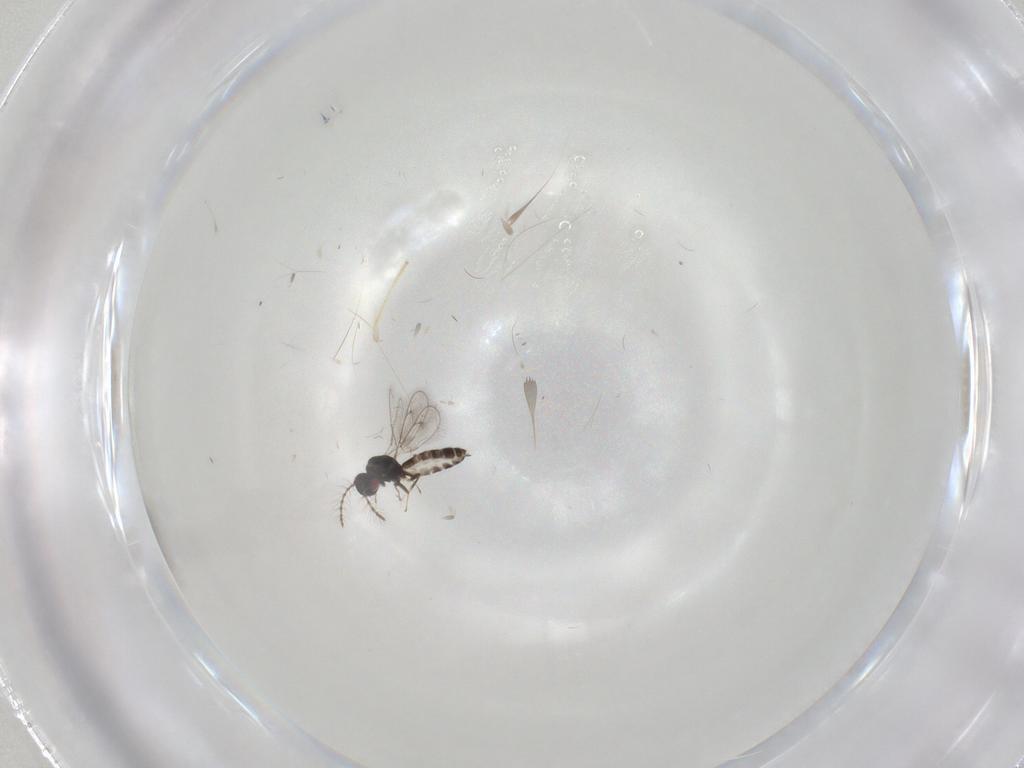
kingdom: Animalia
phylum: Arthropoda
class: Insecta
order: Hymenoptera
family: Pteromalidae
